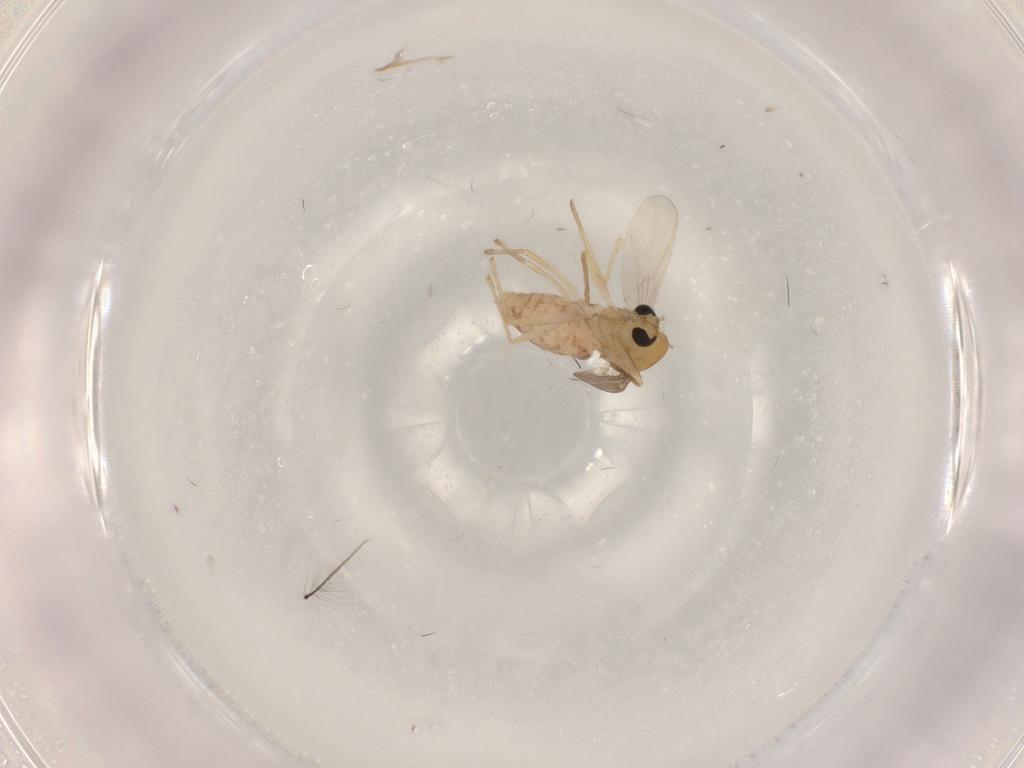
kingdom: Animalia
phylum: Arthropoda
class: Insecta
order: Diptera
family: Chironomidae
